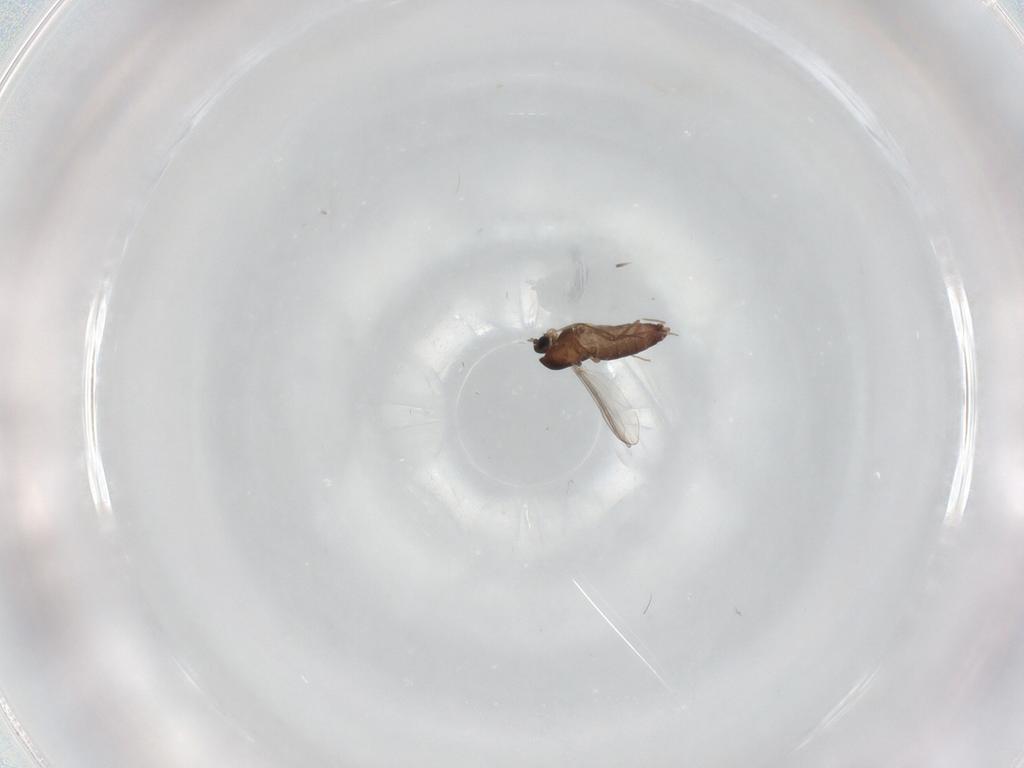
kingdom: Animalia
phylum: Arthropoda
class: Insecta
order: Diptera
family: Chironomidae
